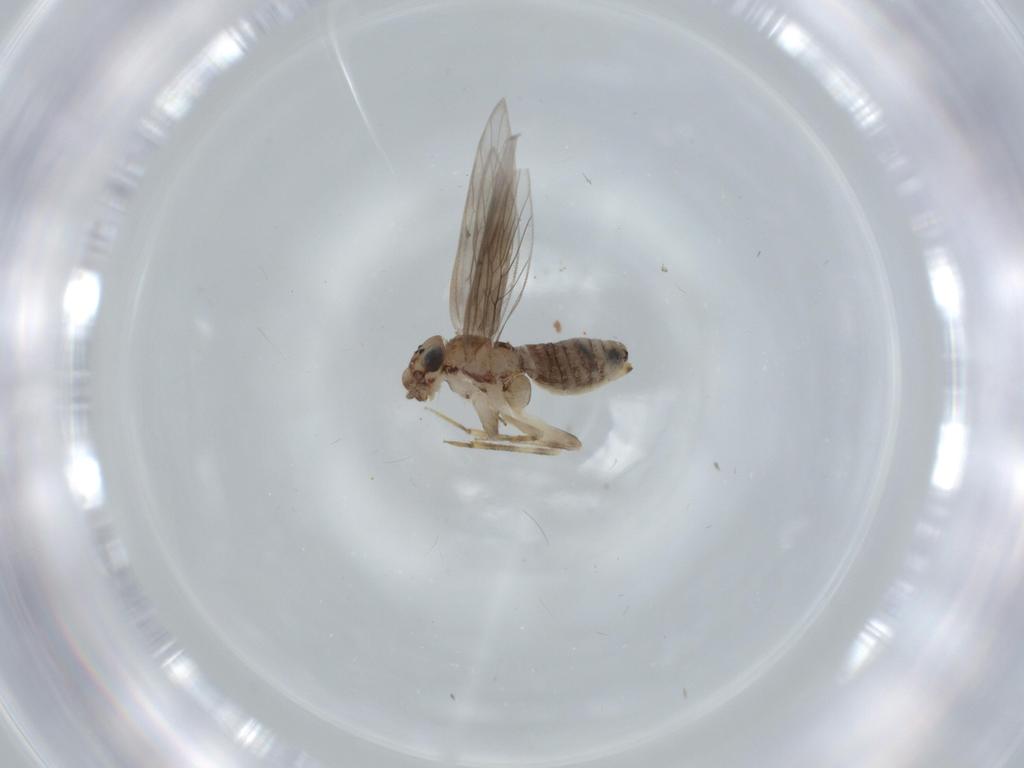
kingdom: Animalia
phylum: Arthropoda
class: Insecta
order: Psocodea
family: Lepidopsocidae
